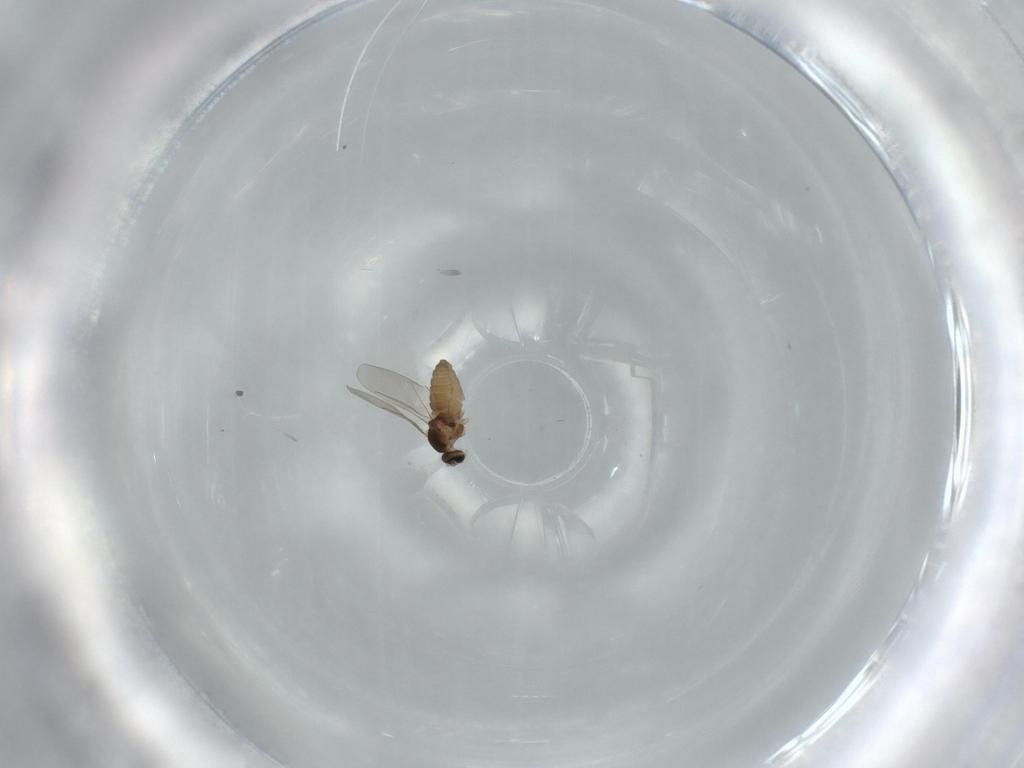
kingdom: Animalia
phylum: Arthropoda
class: Insecta
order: Diptera
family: Cecidomyiidae
